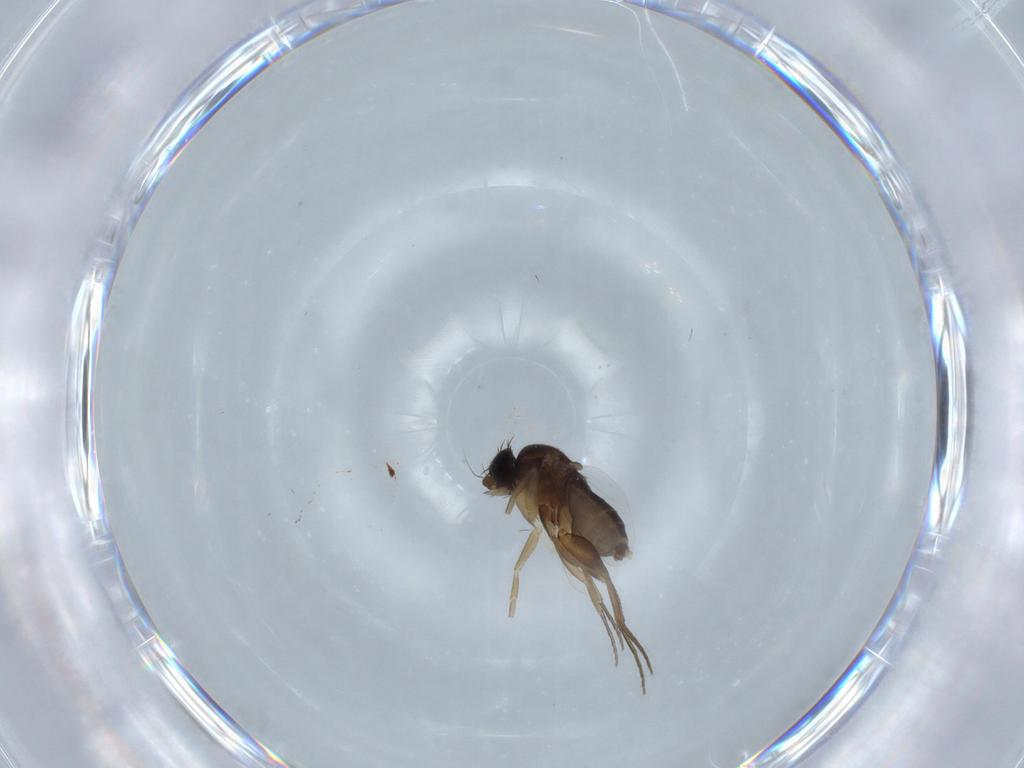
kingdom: Animalia
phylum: Arthropoda
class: Insecta
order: Diptera
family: Phoridae
